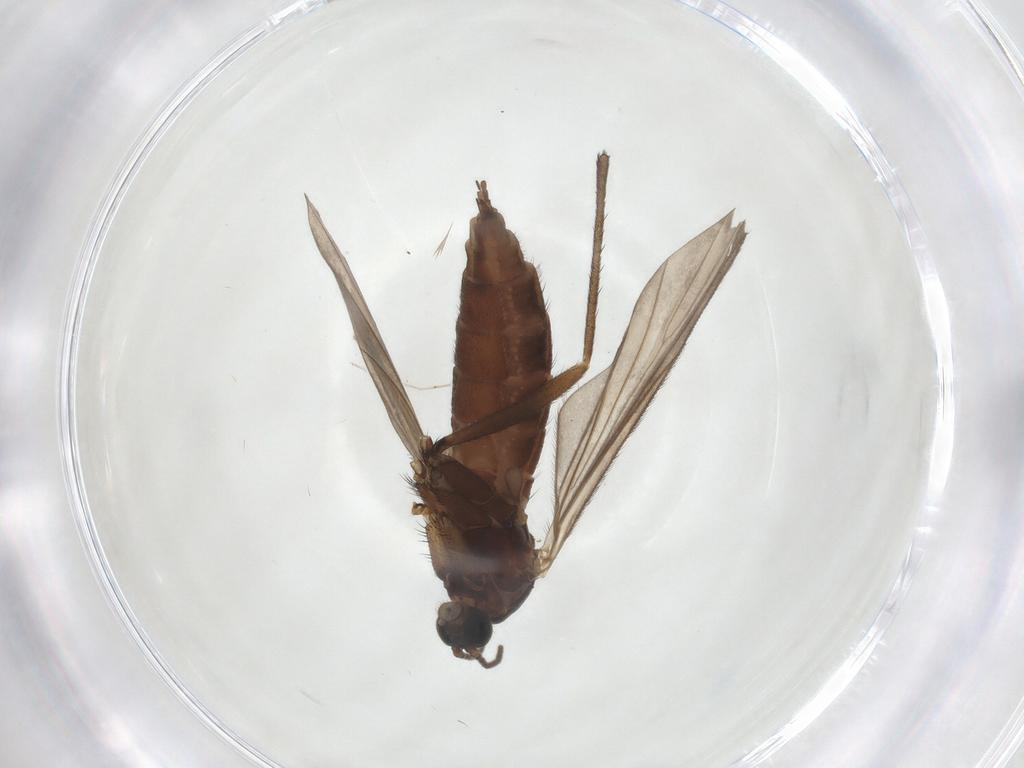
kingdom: Animalia
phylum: Arthropoda
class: Insecta
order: Diptera
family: Sciaridae
